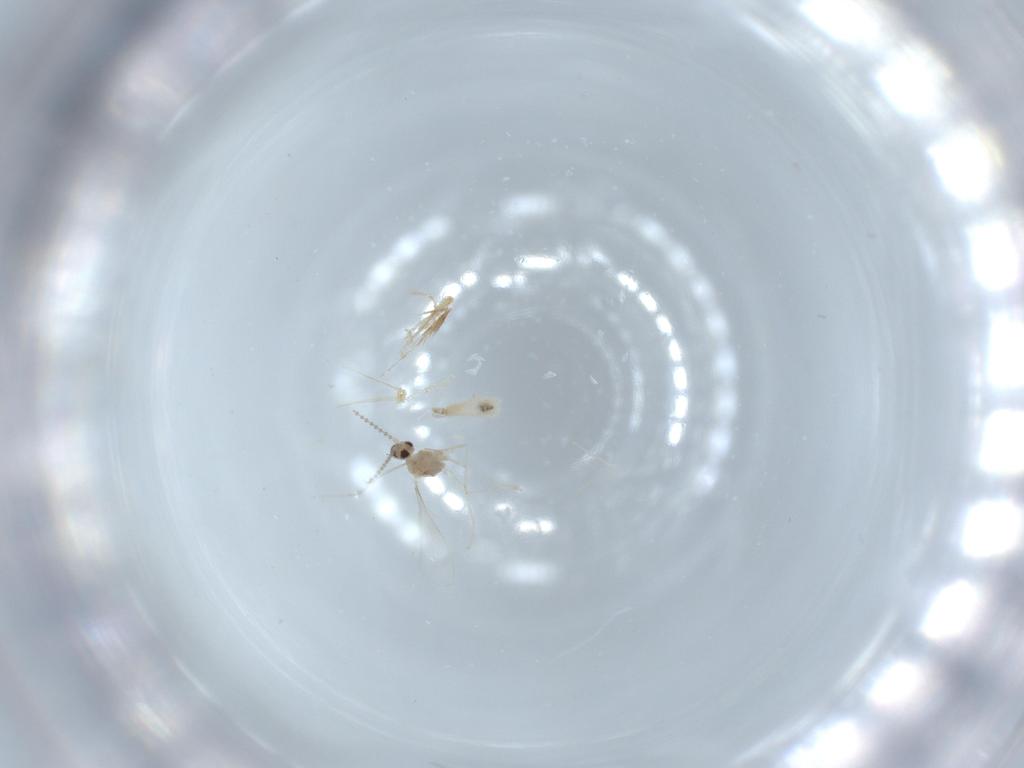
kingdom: Animalia
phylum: Arthropoda
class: Insecta
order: Diptera
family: Cecidomyiidae
